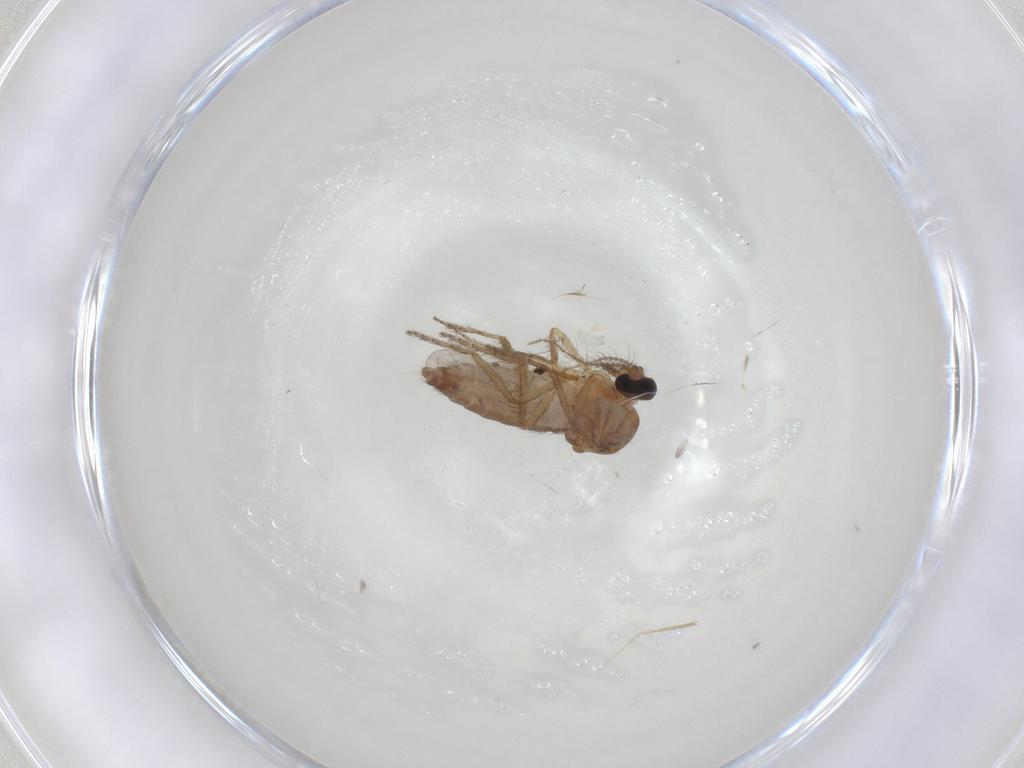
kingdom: Animalia
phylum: Arthropoda
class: Insecta
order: Diptera
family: Ceratopogonidae
